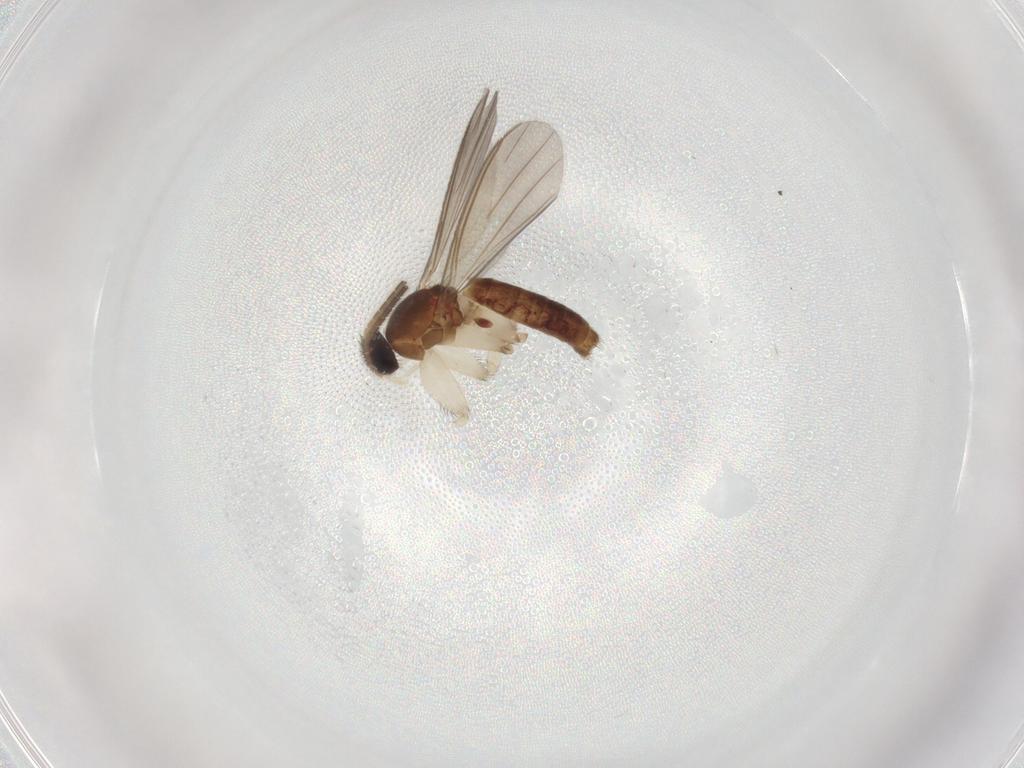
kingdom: Animalia
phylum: Arthropoda
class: Insecta
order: Diptera
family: Mycetophilidae
